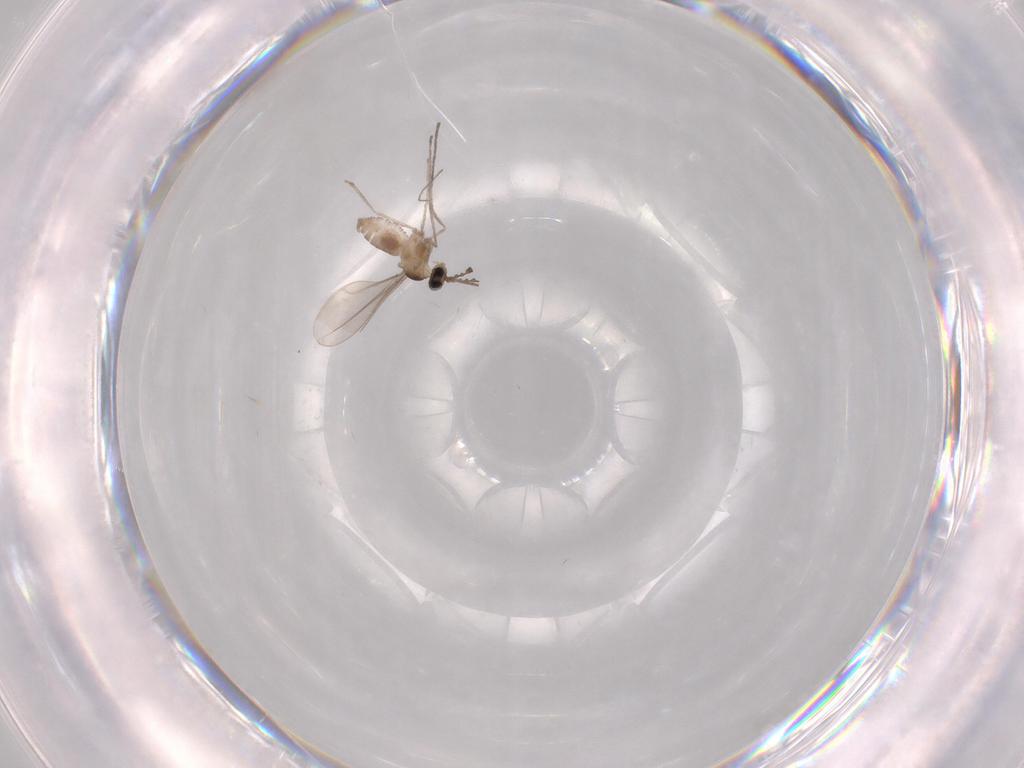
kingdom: Animalia
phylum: Arthropoda
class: Insecta
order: Diptera
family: Cecidomyiidae
